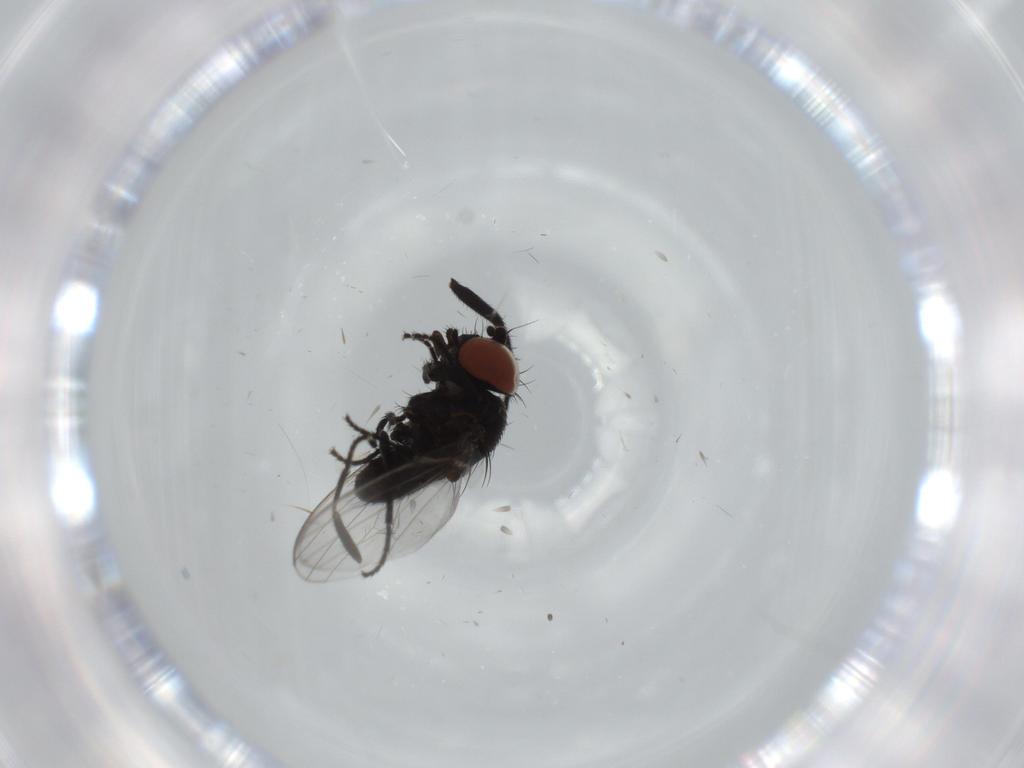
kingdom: Animalia
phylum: Arthropoda
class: Insecta
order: Diptera
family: Phoridae
